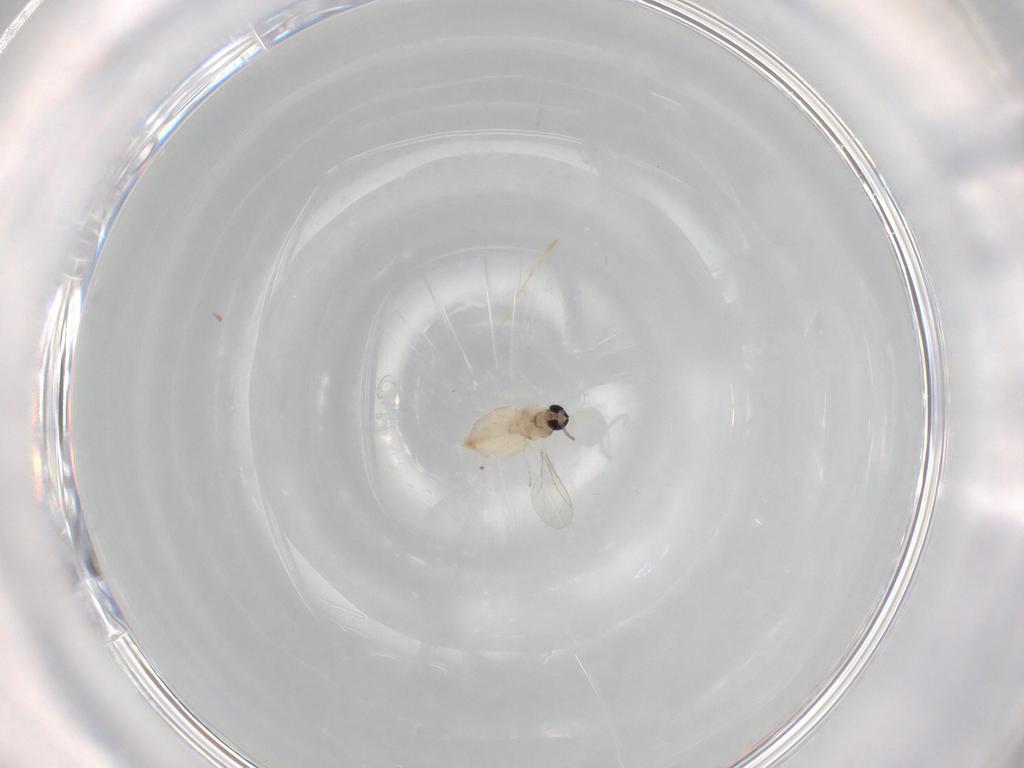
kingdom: Animalia
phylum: Arthropoda
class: Insecta
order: Diptera
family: Cecidomyiidae
